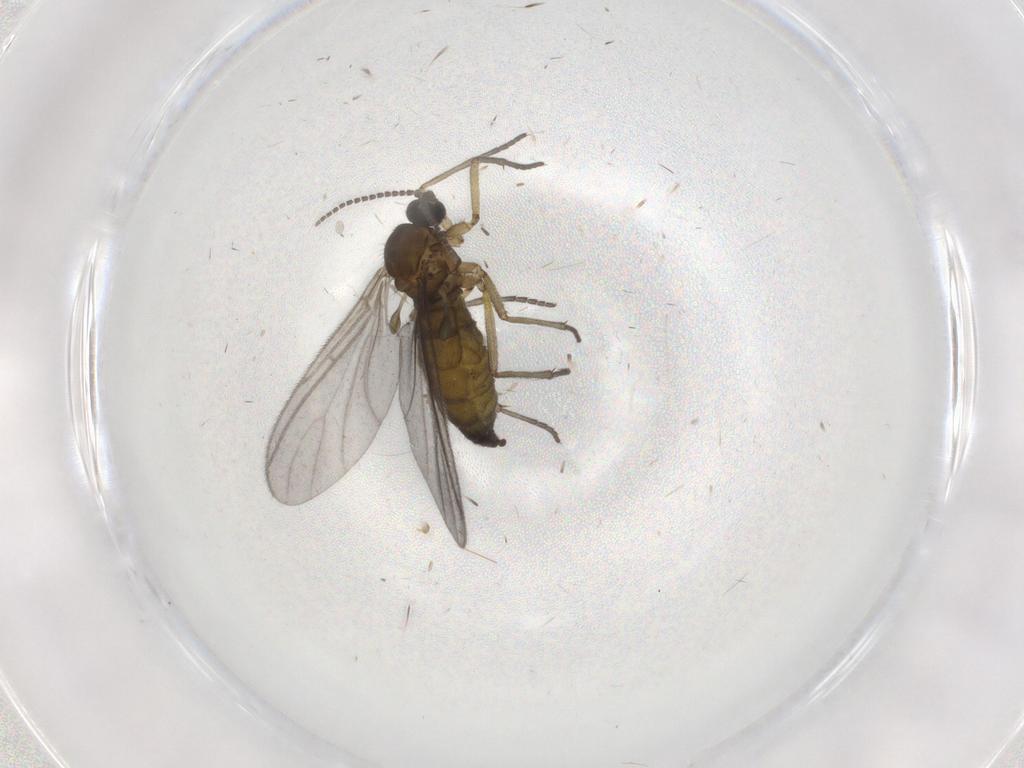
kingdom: Animalia
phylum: Arthropoda
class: Insecta
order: Diptera
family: Sciaridae
